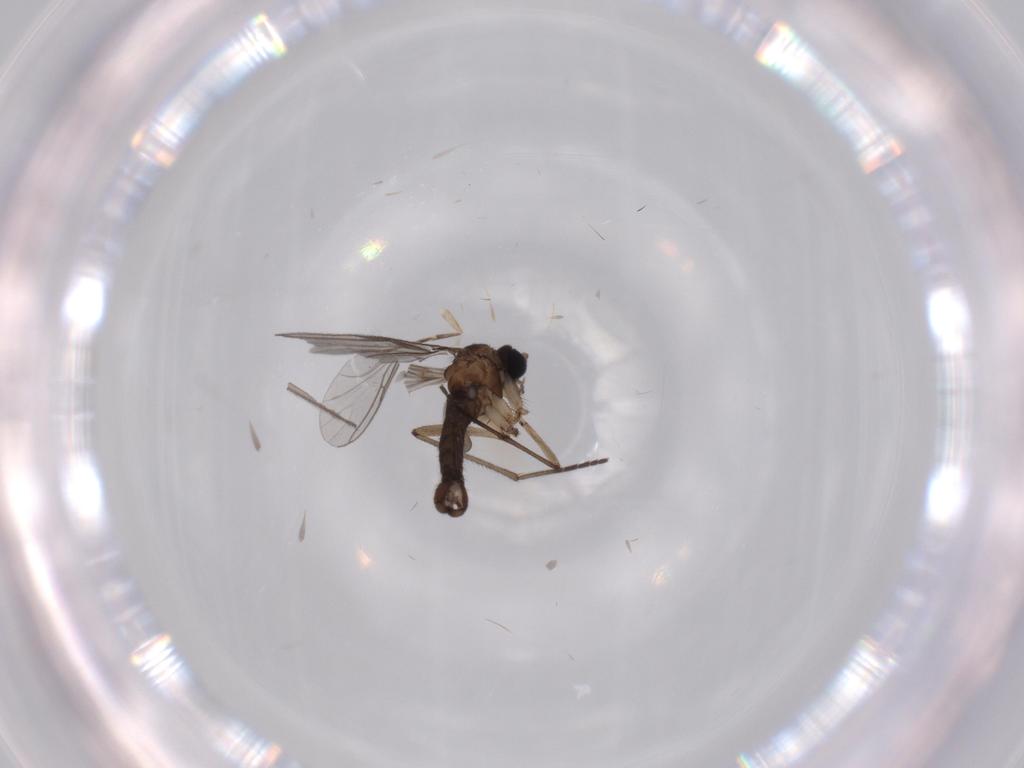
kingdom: Animalia
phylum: Arthropoda
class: Insecta
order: Diptera
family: Sciaridae
